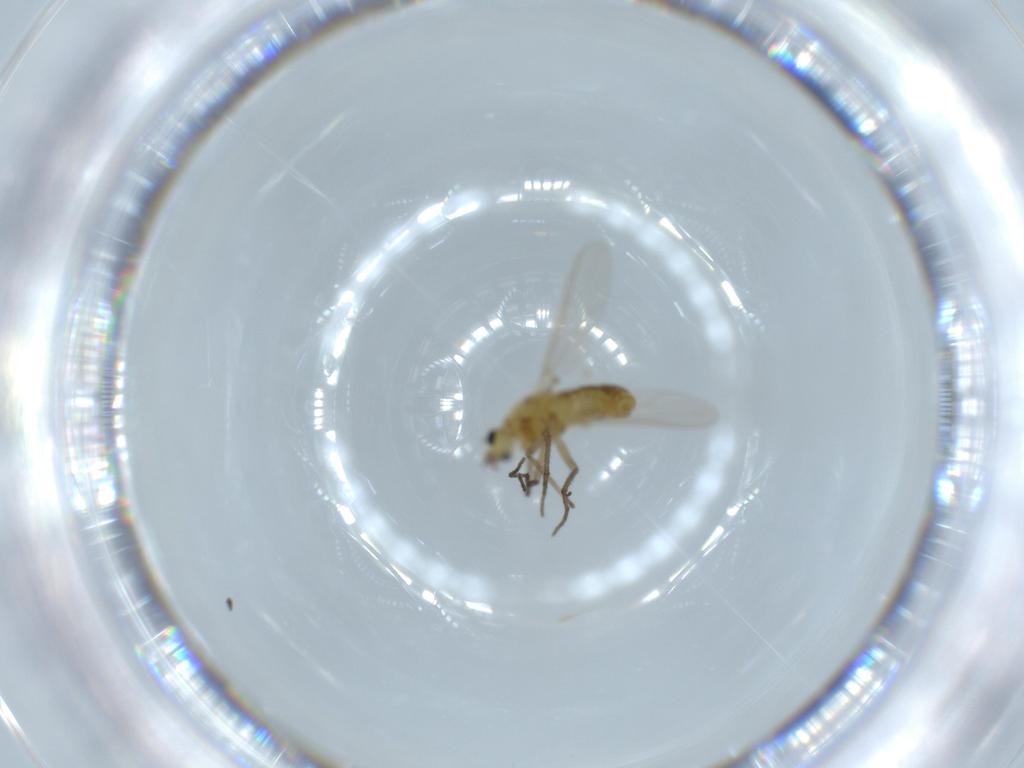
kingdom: Animalia
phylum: Arthropoda
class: Insecta
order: Diptera
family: Chironomidae
